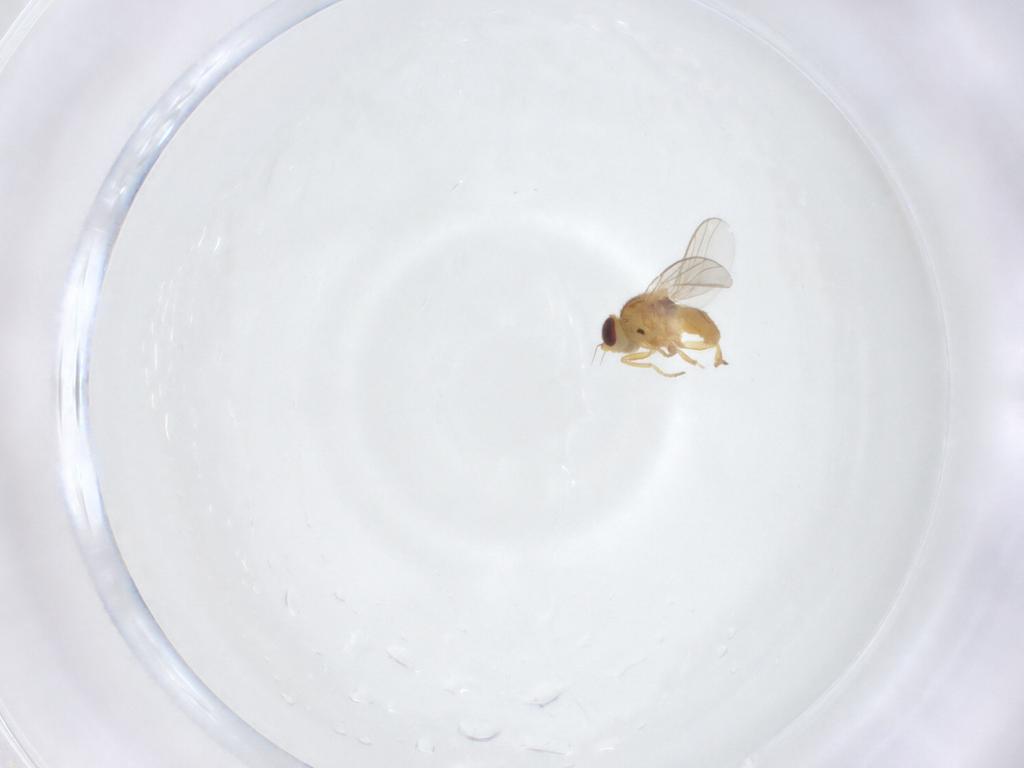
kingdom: Animalia
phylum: Arthropoda
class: Insecta
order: Diptera
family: Chloropidae
